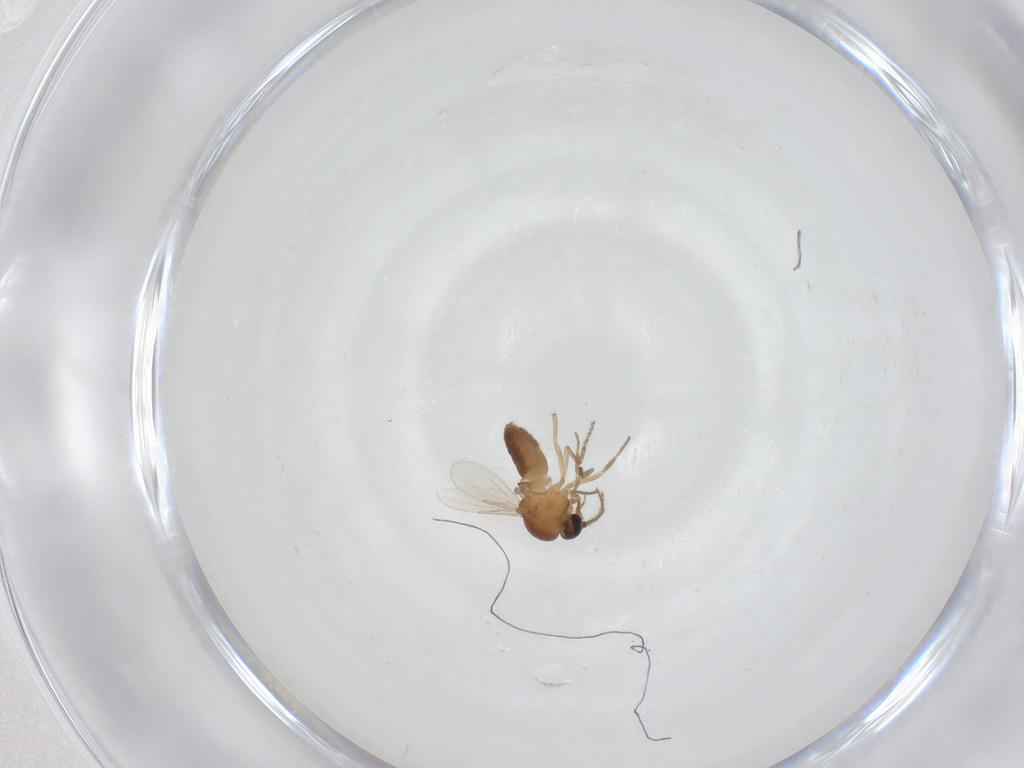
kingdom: Animalia
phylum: Arthropoda
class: Insecta
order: Diptera
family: Ceratopogonidae
